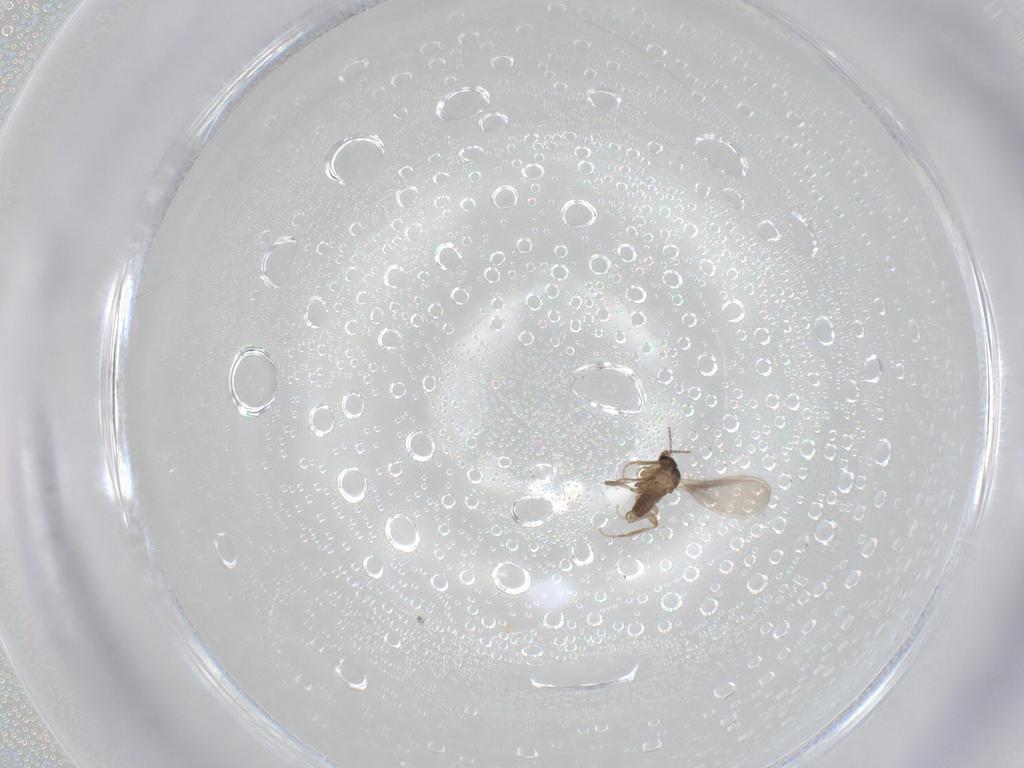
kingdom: Animalia
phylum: Arthropoda
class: Insecta
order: Diptera
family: Sciaridae
